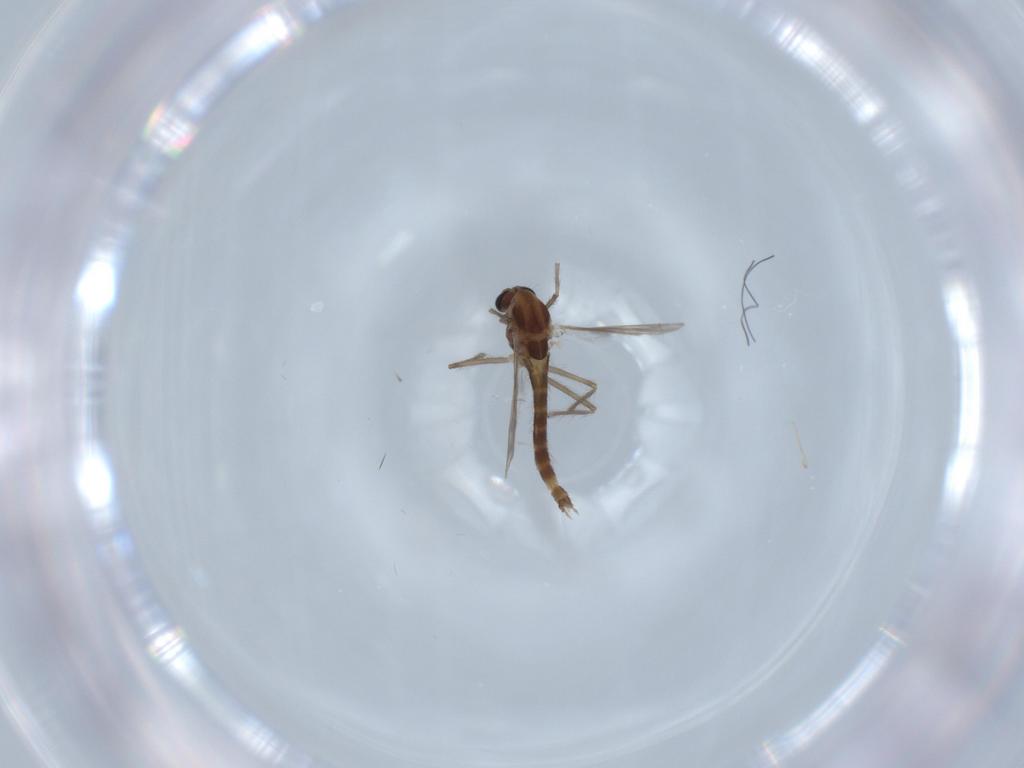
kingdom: Animalia
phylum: Arthropoda
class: Insecta
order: Diptera
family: Chironomidae
